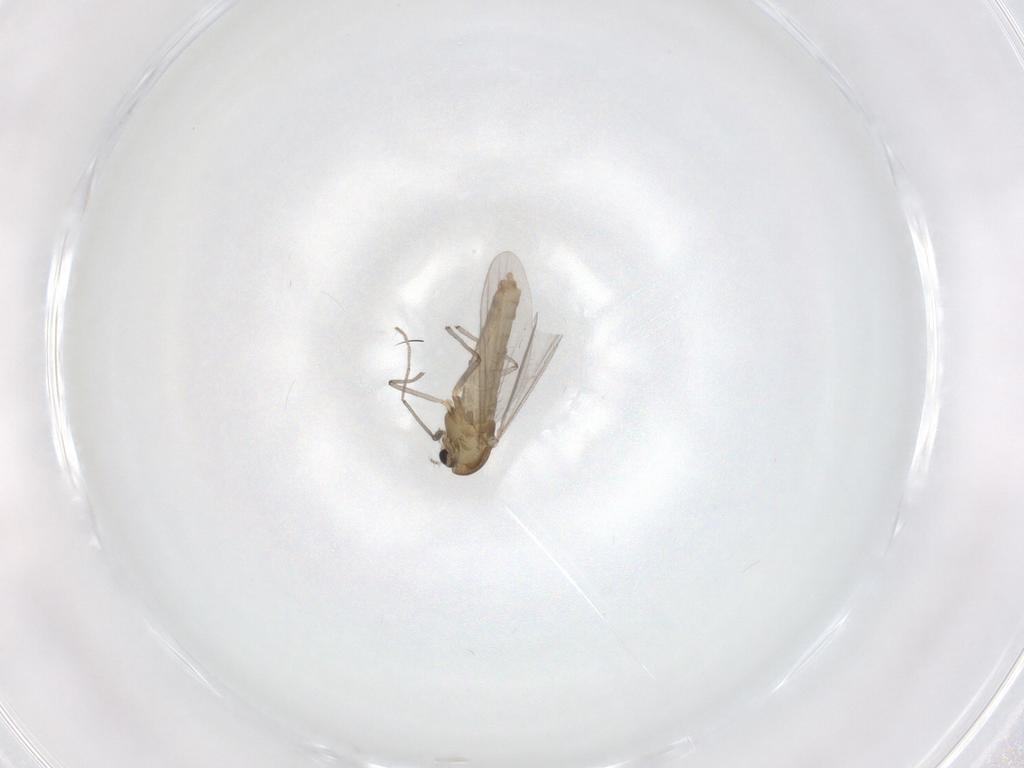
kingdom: Animalia
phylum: Arthropoda
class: Insecta
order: Diptera
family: Chironomidae
